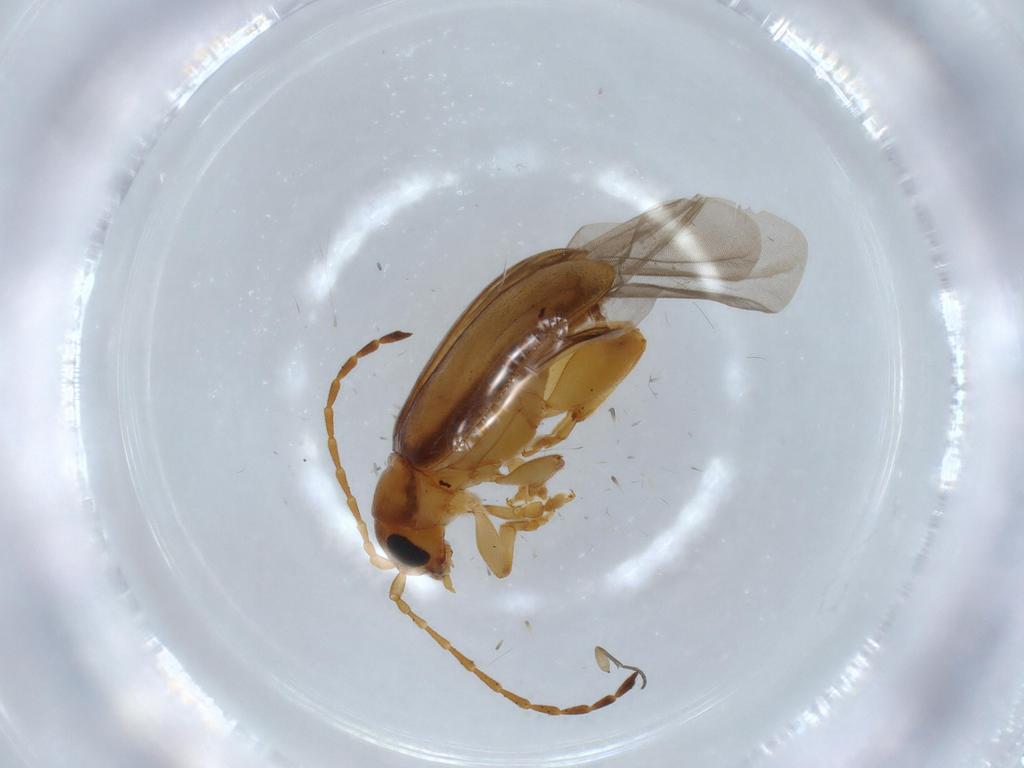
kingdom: Animalia
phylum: Arthropoda
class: Insecta
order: Coleoptera
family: Chrysomelidae
